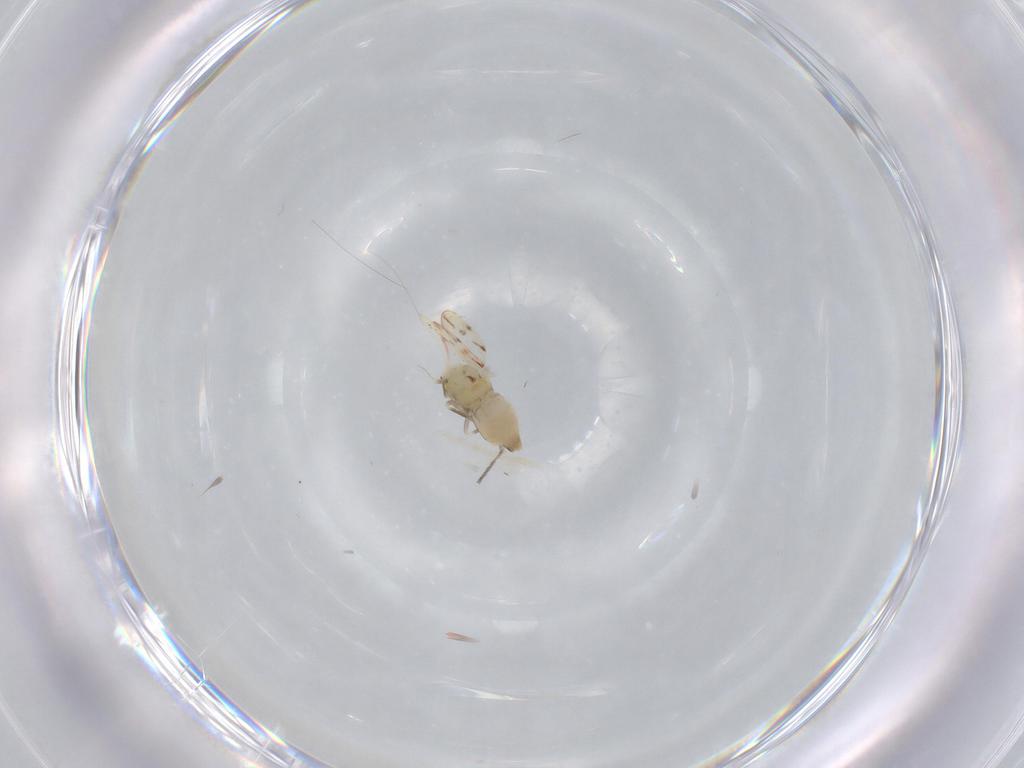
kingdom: Animalia
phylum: Arthropoda
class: Insecta
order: Hemiptera
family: Aleyrodidae
